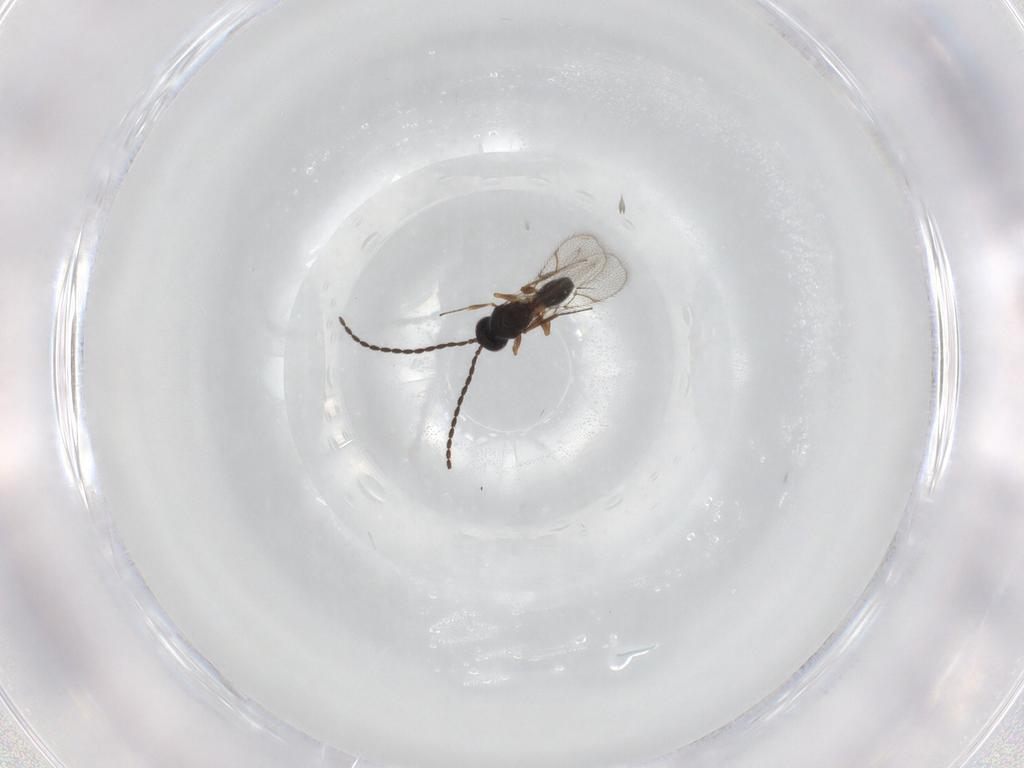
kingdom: Animalia
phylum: Arthropoda
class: Insecta
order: Hymenoptera
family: Figitidae
